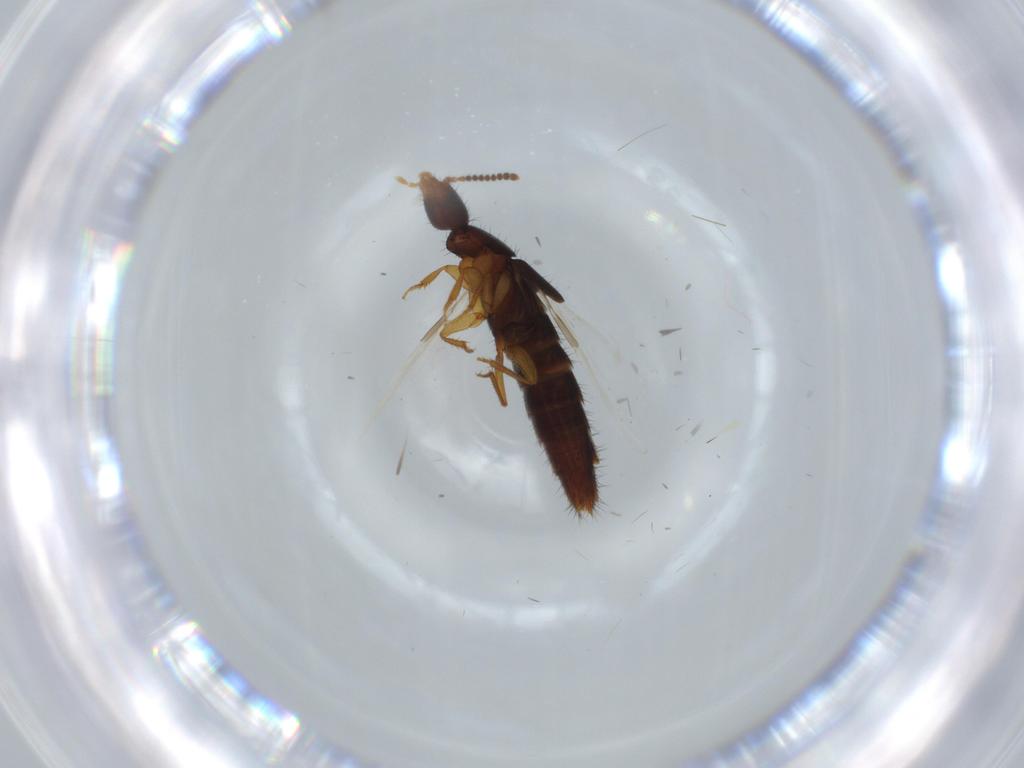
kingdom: Animalia
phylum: Arthropoda
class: Insecta
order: Coleoptera
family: Staphylinidae
